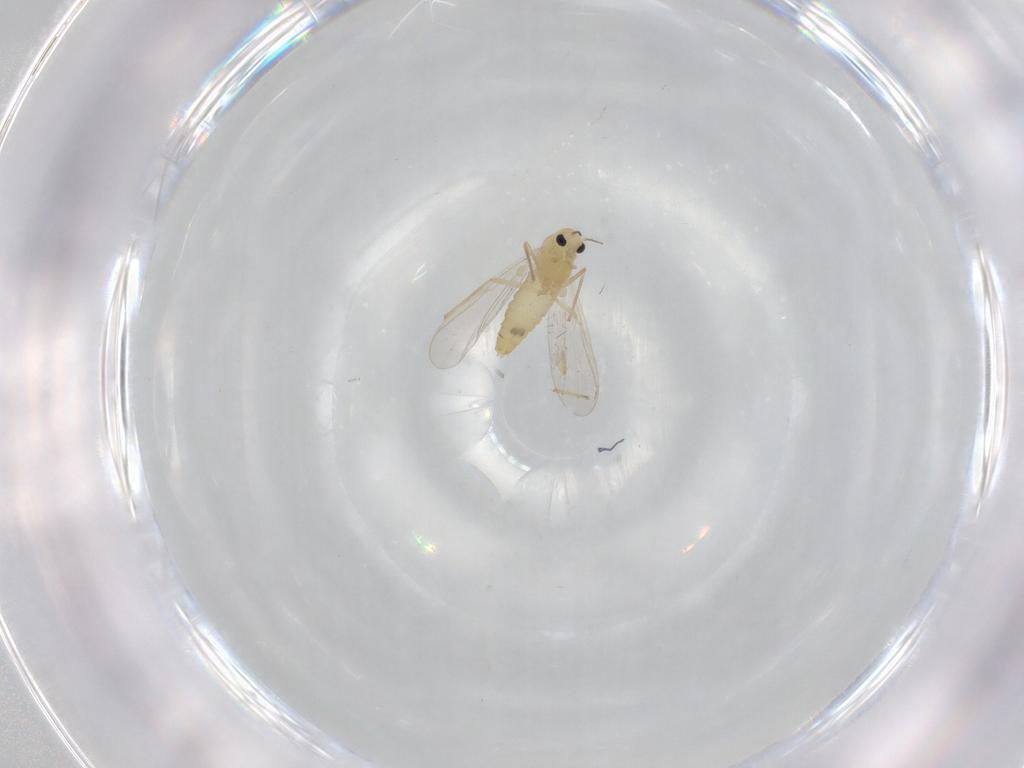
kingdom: Animalia
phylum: Arthropoda
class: Insecta
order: Diptera
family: Chironomidae
